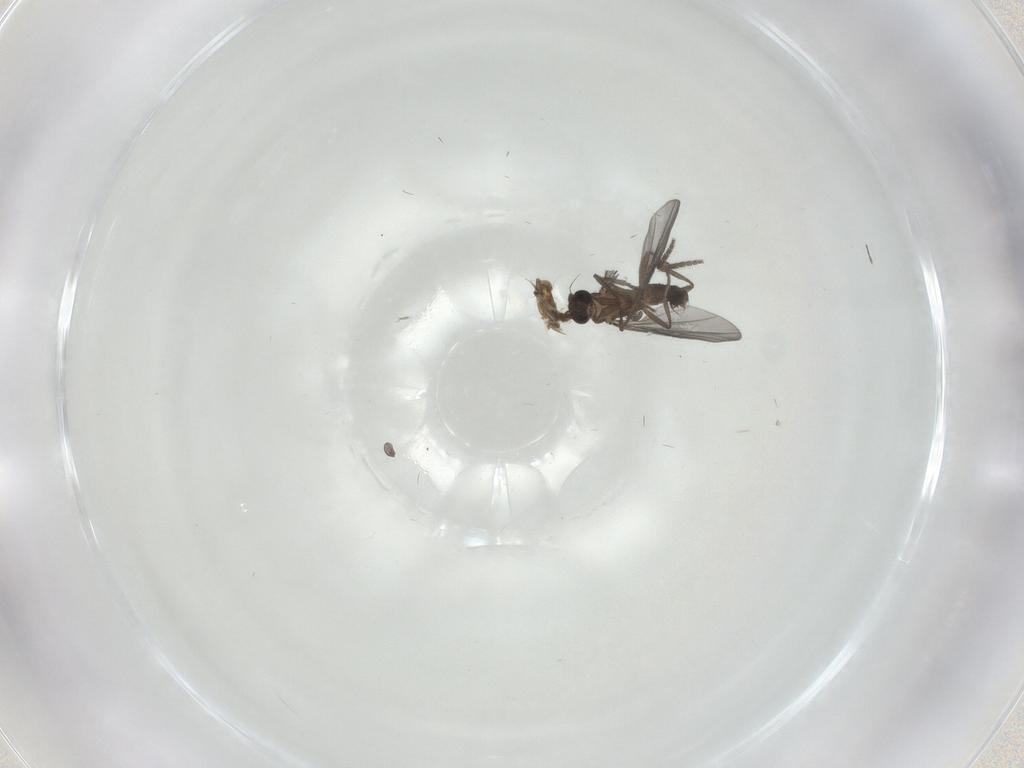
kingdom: Animalia
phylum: Arthropoda
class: Insecta
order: Diptera
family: Phoridae
